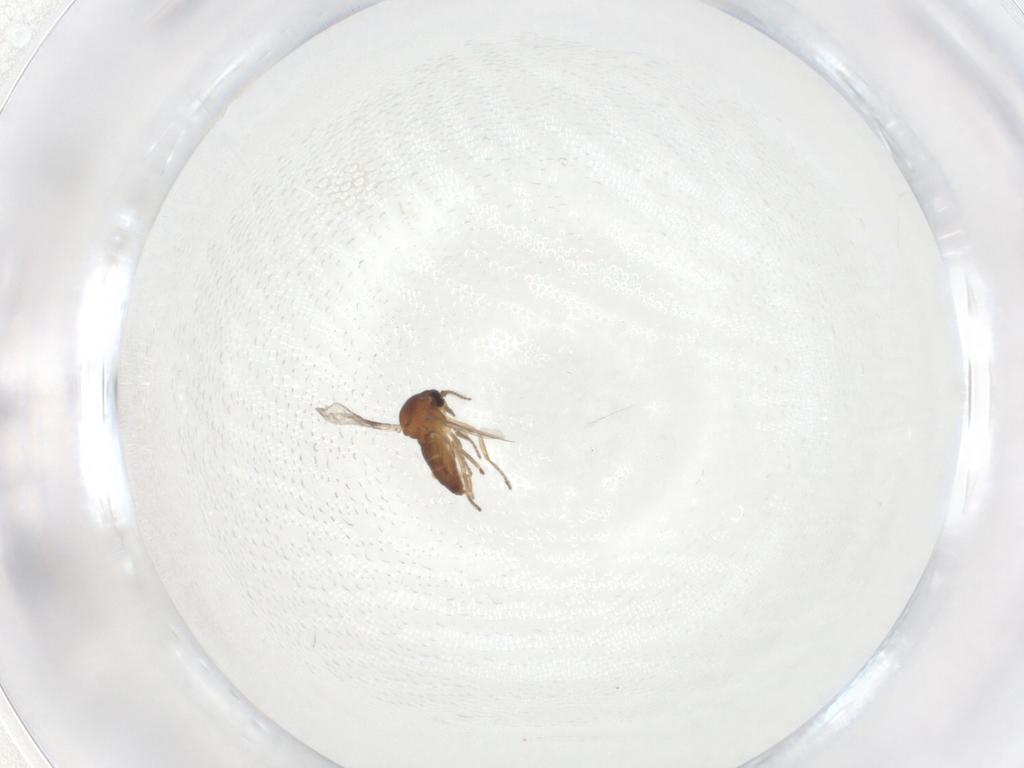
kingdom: Animalia
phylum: Arthropoda
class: Insecta
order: Diptera
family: Ceratopogonidae
